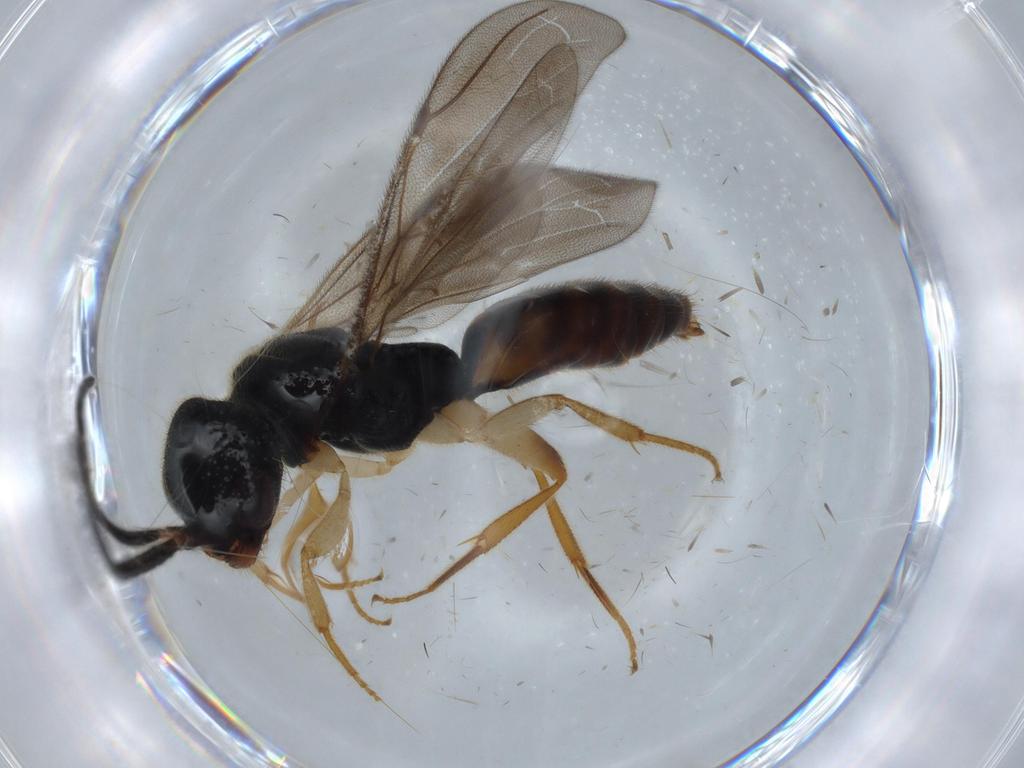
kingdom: Animalia
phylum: Arthropoda
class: Insecta
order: Hymenoptera
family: Bethylidae
